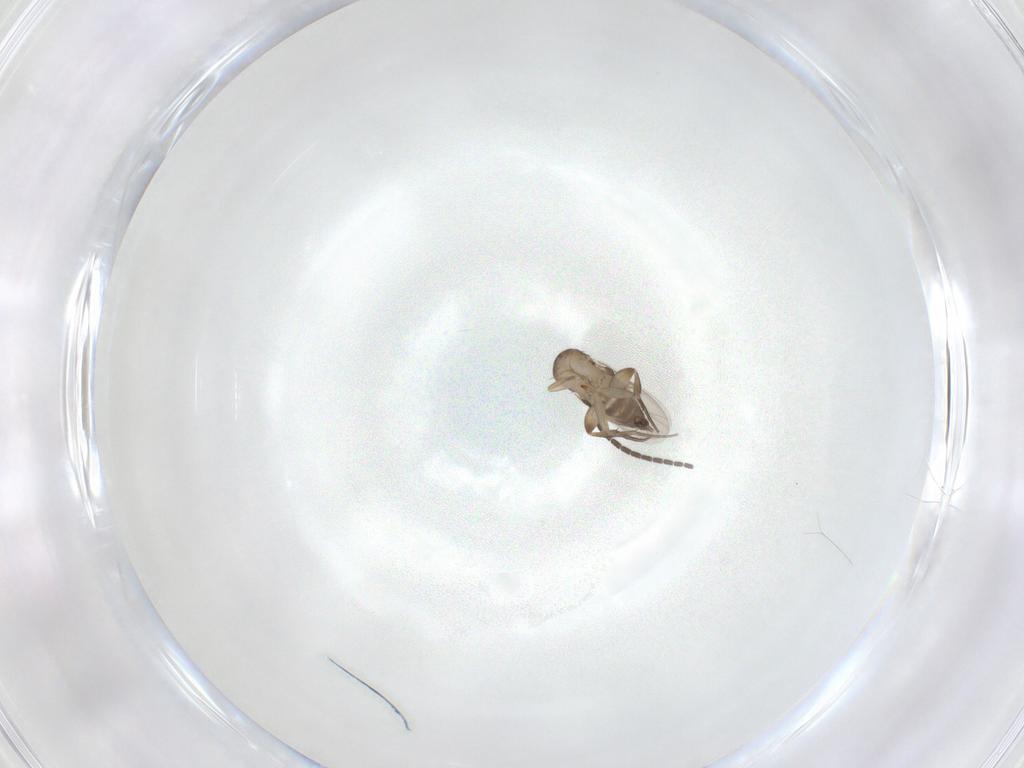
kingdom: Animalia
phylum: Arthropoda
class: Insecta
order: Diptera
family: Sciaridae
